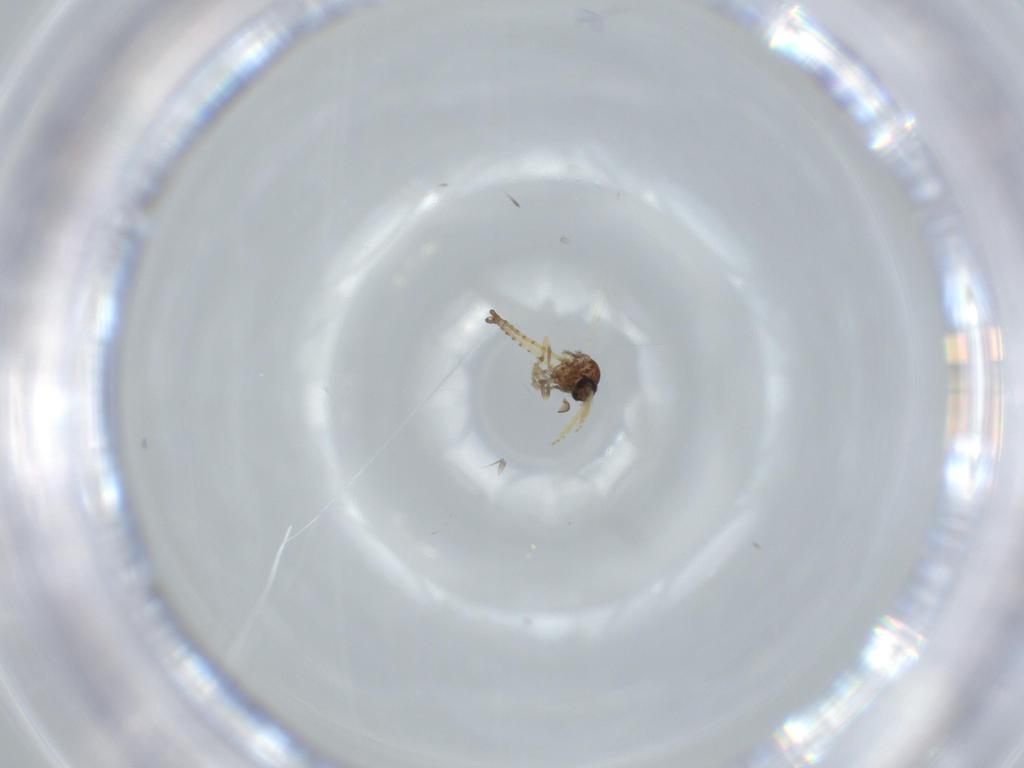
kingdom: Animalia
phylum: Arthropoda
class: Insecta
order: Diptera
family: Ceratopogonidae
